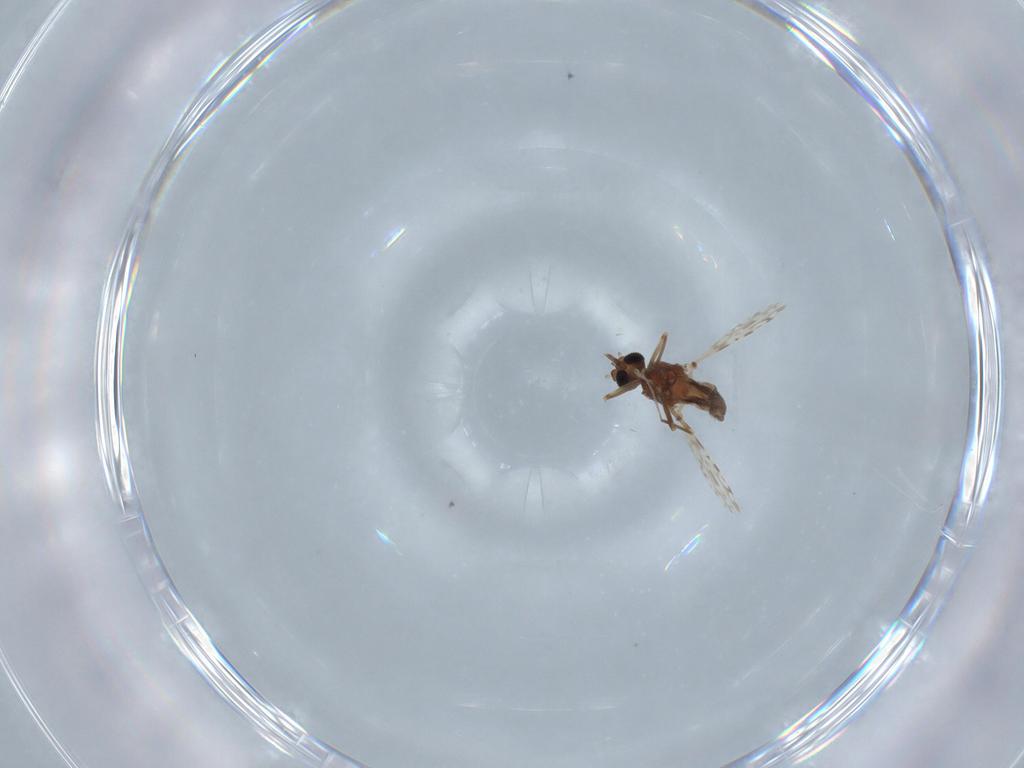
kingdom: Animalia
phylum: Arthropoda
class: Insecta
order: Diptera
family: Ceratopogonidae
